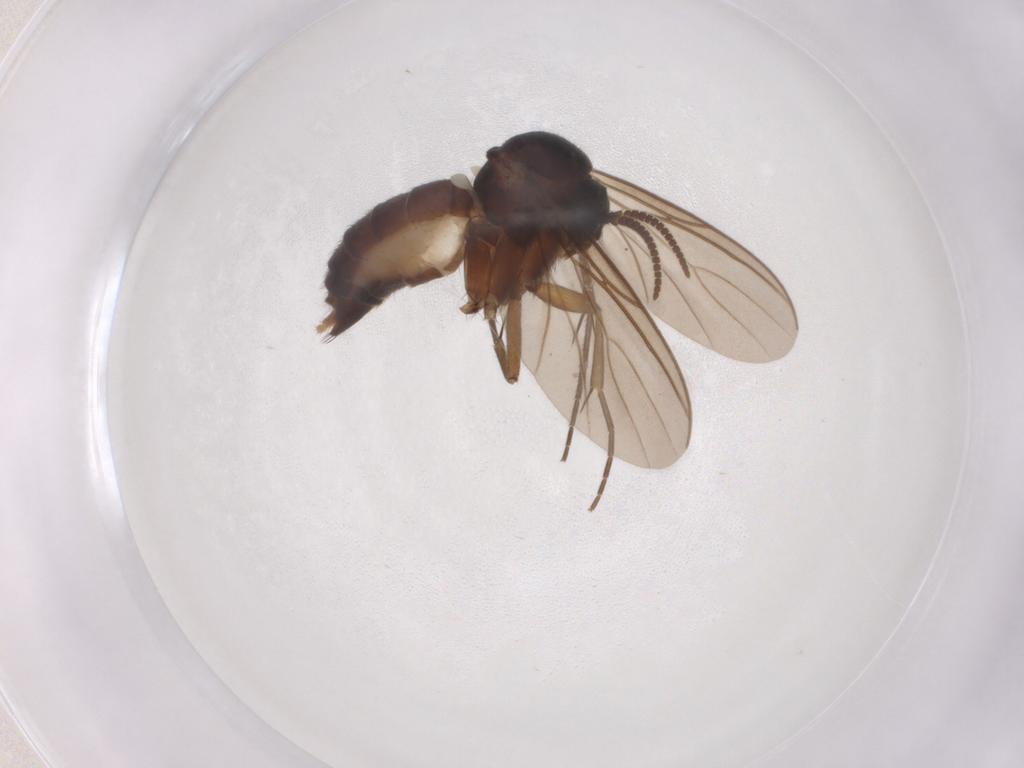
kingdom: Animalia
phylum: Arthropoda
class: Insecta
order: Diptera
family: Mycetophilidae
